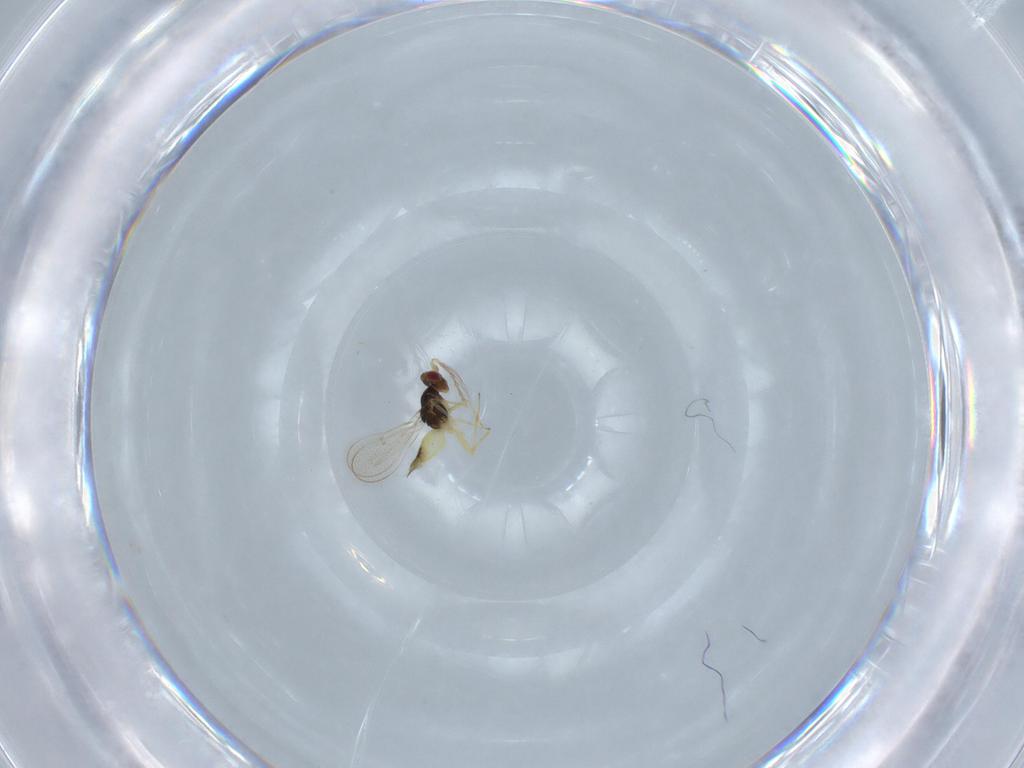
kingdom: Animalia
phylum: Arthropoda
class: Insecta
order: Hymenoptera
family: Eulophidae
